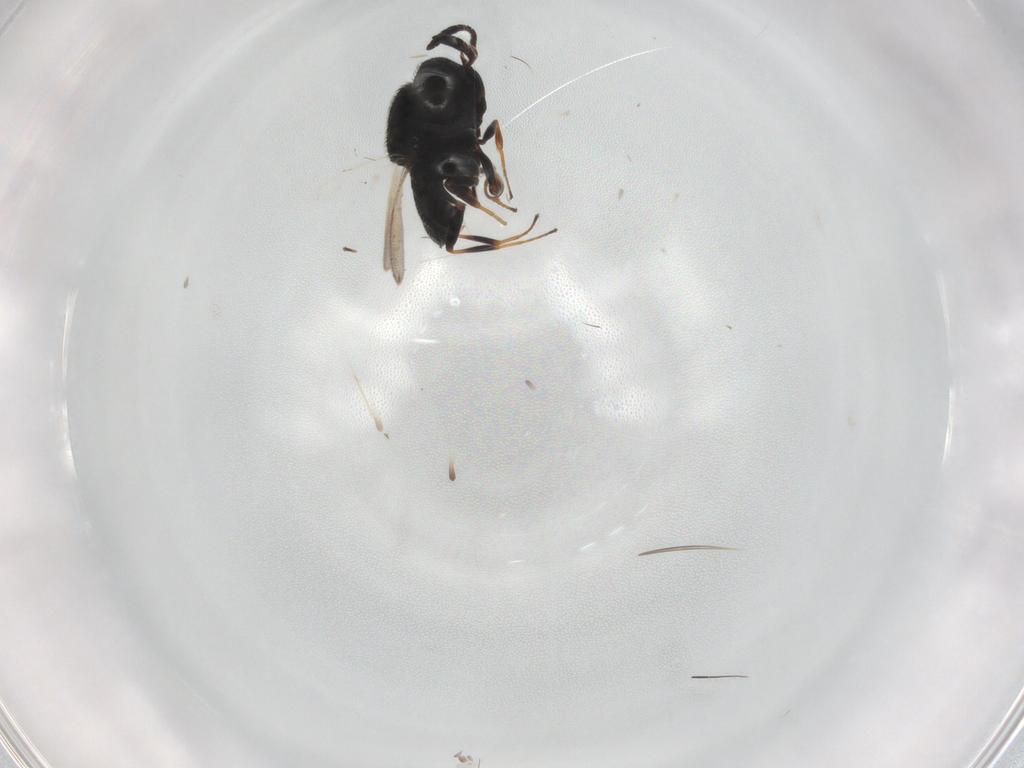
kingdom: Animalia
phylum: Arthropoda
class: Insecta
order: Hymenoptera
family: Scelionidae
